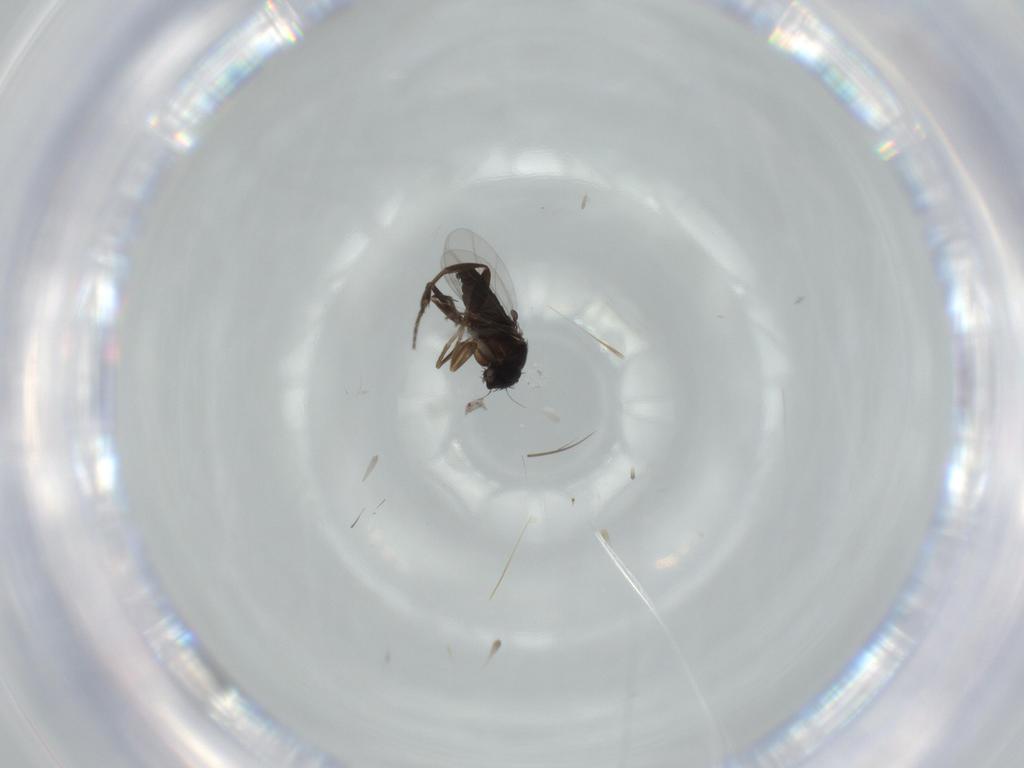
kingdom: Animalia
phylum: Arthropoda
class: Insecta
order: Diptera
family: Phoridae
